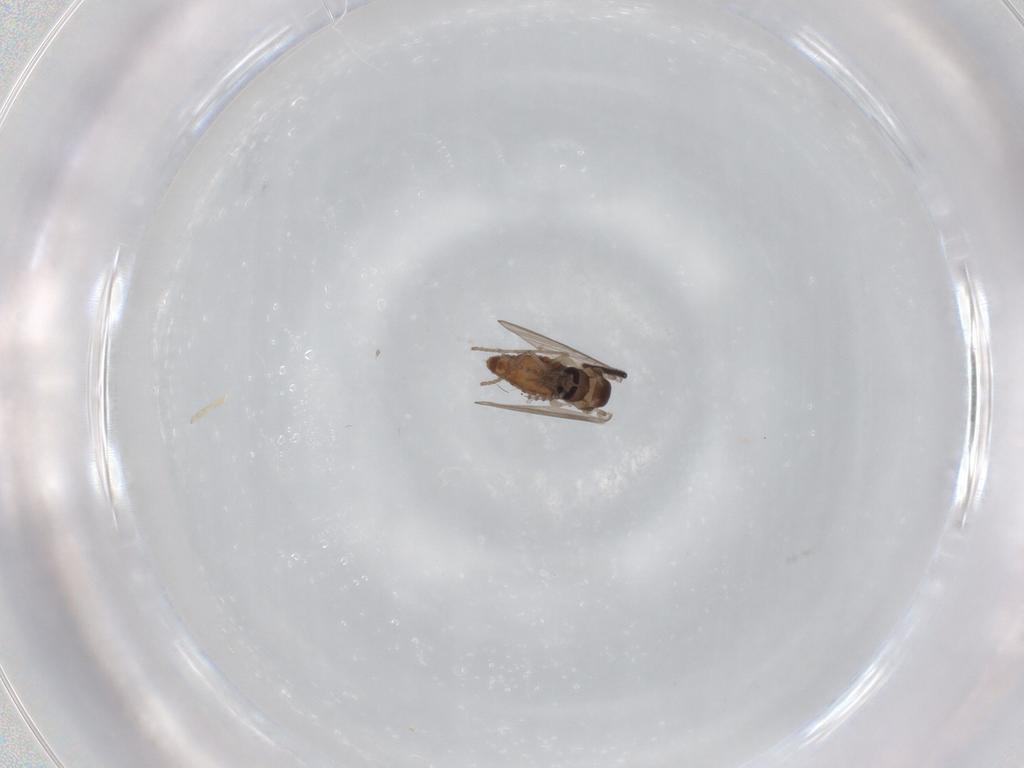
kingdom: Animalia
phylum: Arthropoda
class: Insecta
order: Diptera
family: Psychodidae
